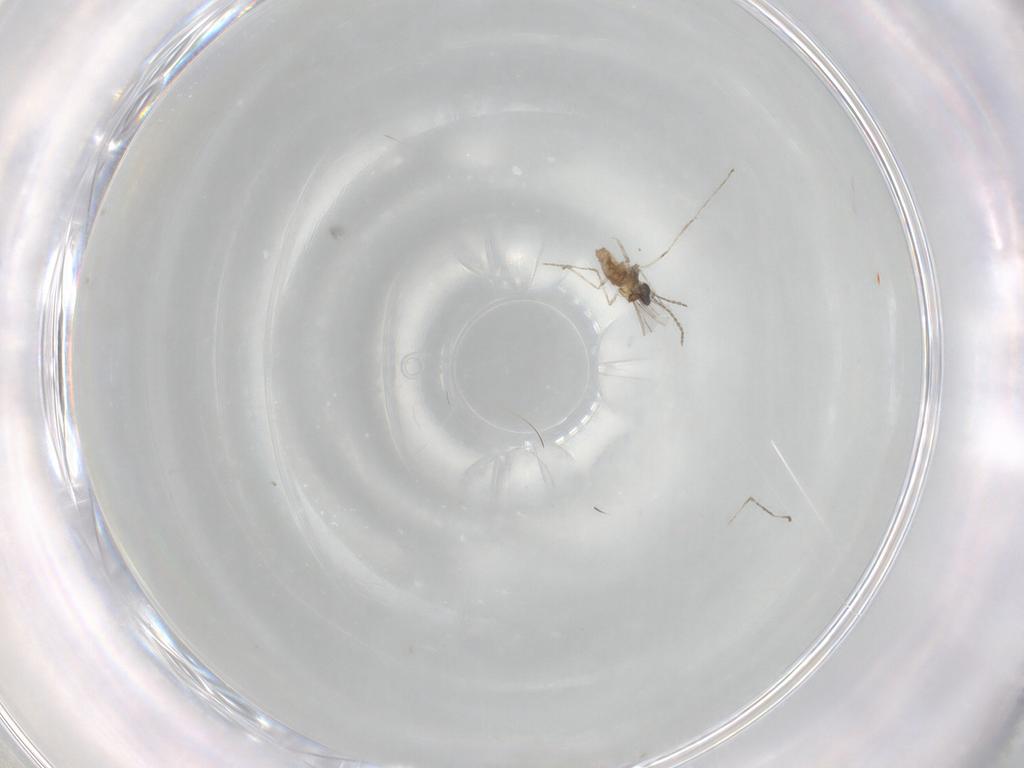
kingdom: Animalia
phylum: Arthropoda
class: Insecta
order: Diptera
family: Cecidomyiidae
